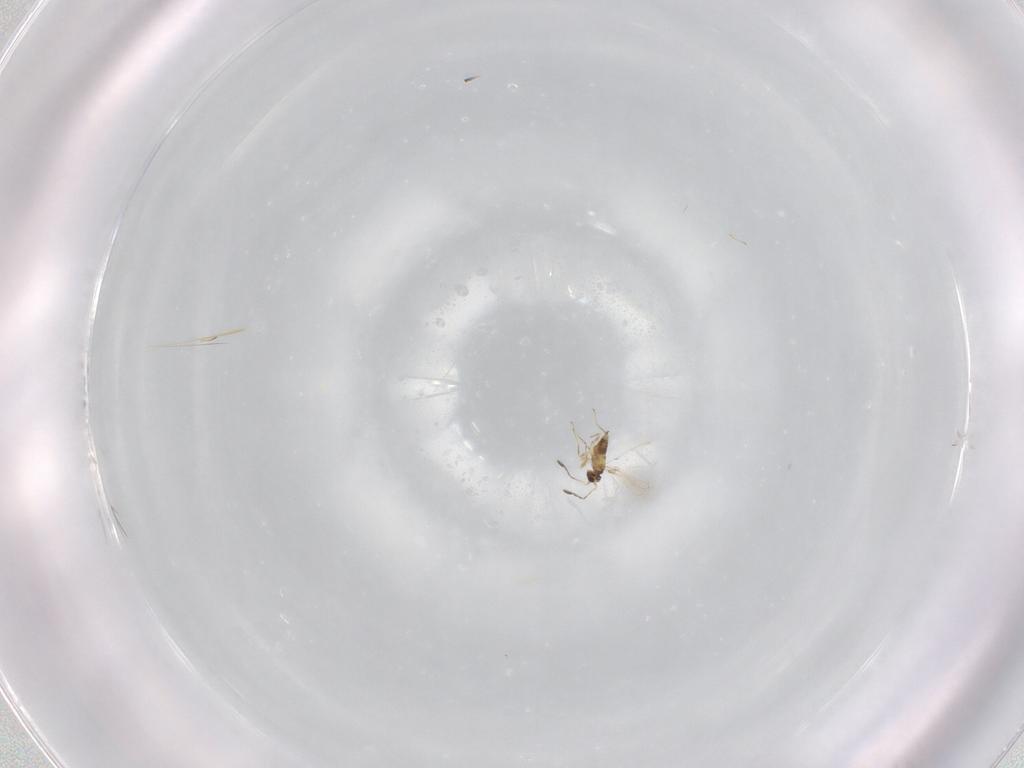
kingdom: Animalia
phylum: Arthropoda
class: Insecta
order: Hymenoptera
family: Mymaridae
